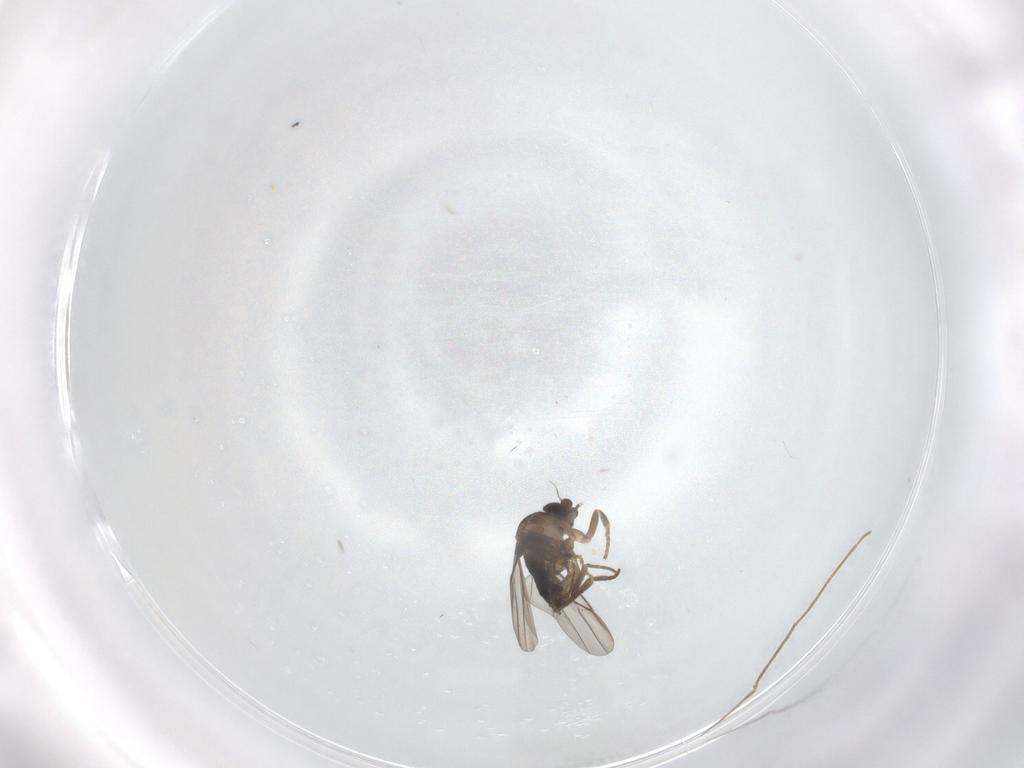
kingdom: Animalia
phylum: Arthropoda
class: Insecta
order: Diptera
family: Cecidomyiidae
